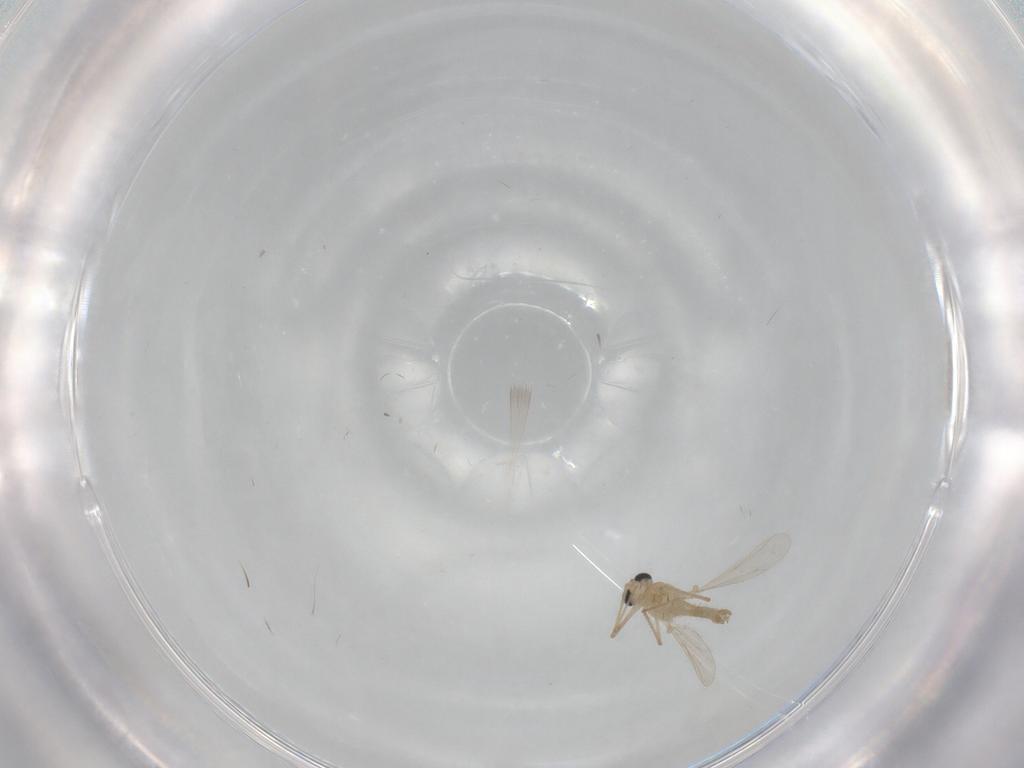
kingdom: Animalia
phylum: Arthropoda
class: Insecta
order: Diptera
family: Chironomidae
